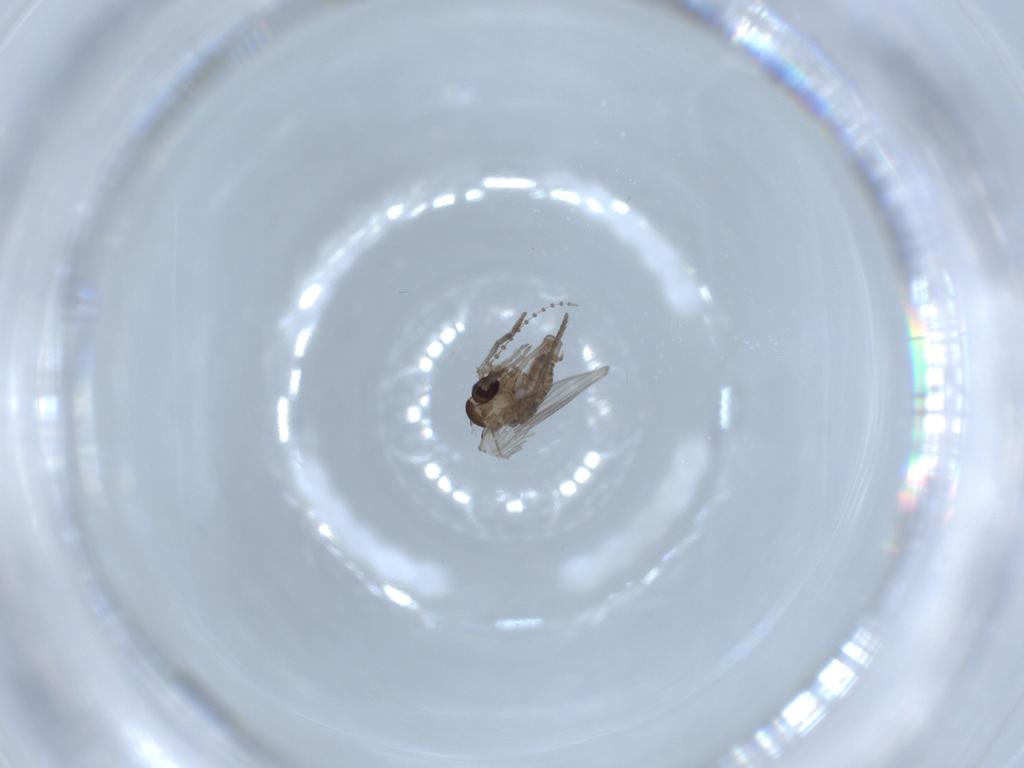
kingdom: Animalia
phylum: Arthropoda
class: Insecta
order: Diptera
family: Psychodidae
